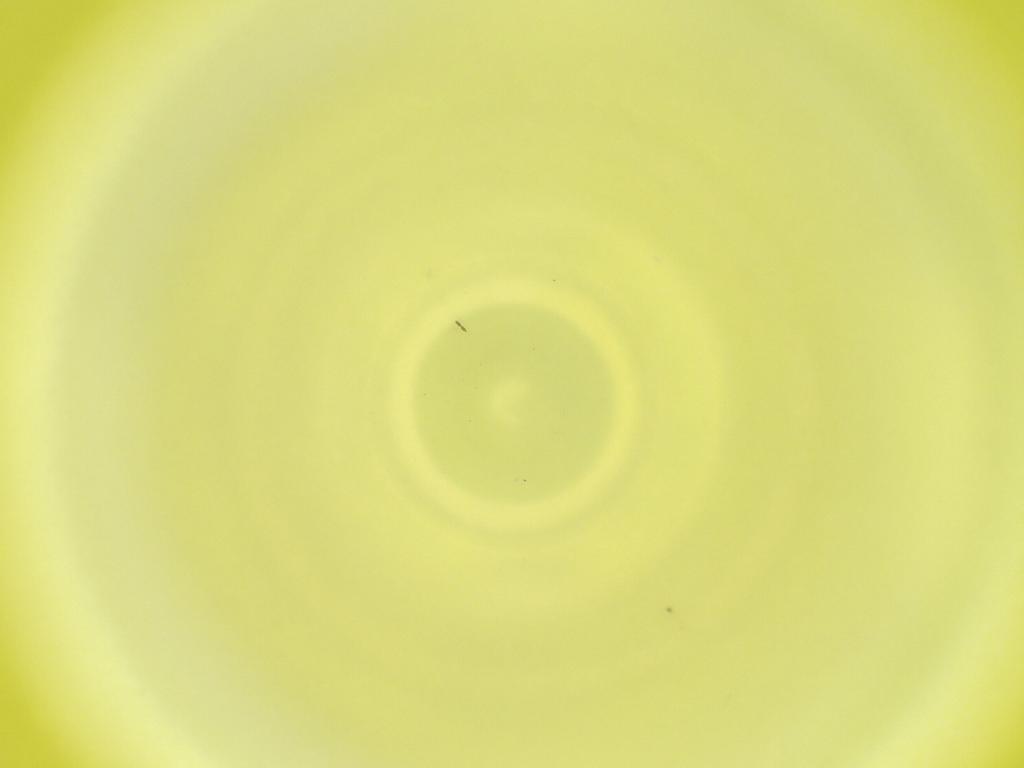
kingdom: Animalia
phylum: Arthropoda
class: Insecta
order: Diptera
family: Cecidomyiidae
